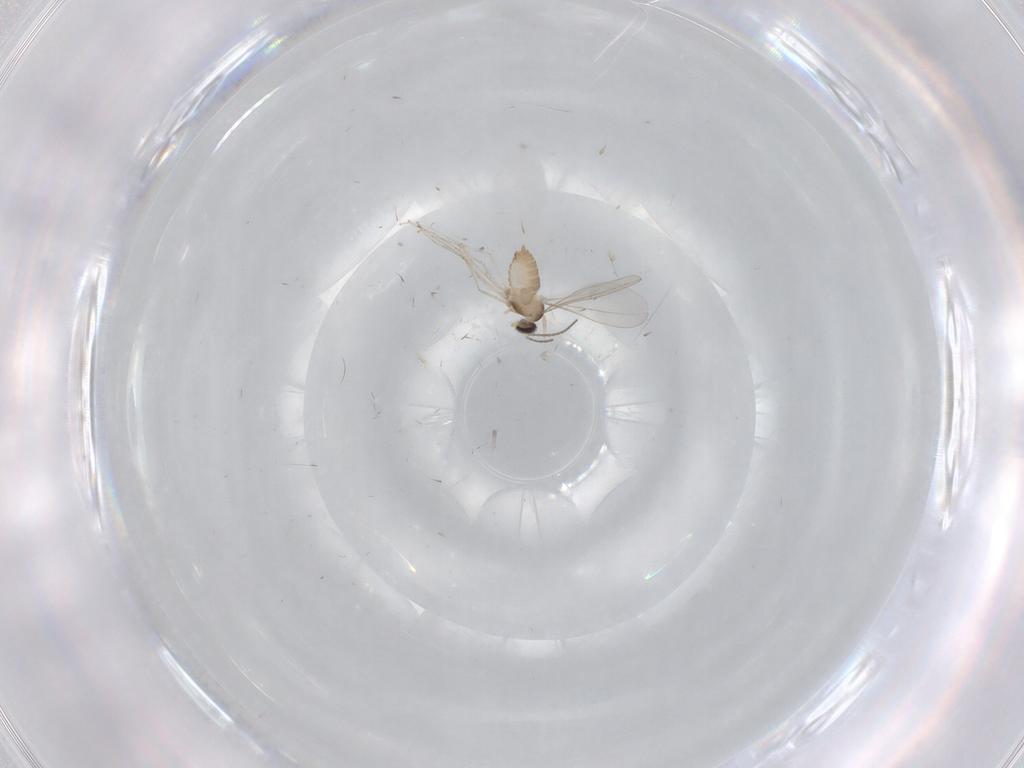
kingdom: Animalia
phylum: Arthropoda
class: Insecta
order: Diptera
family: Cecidomyiidae
